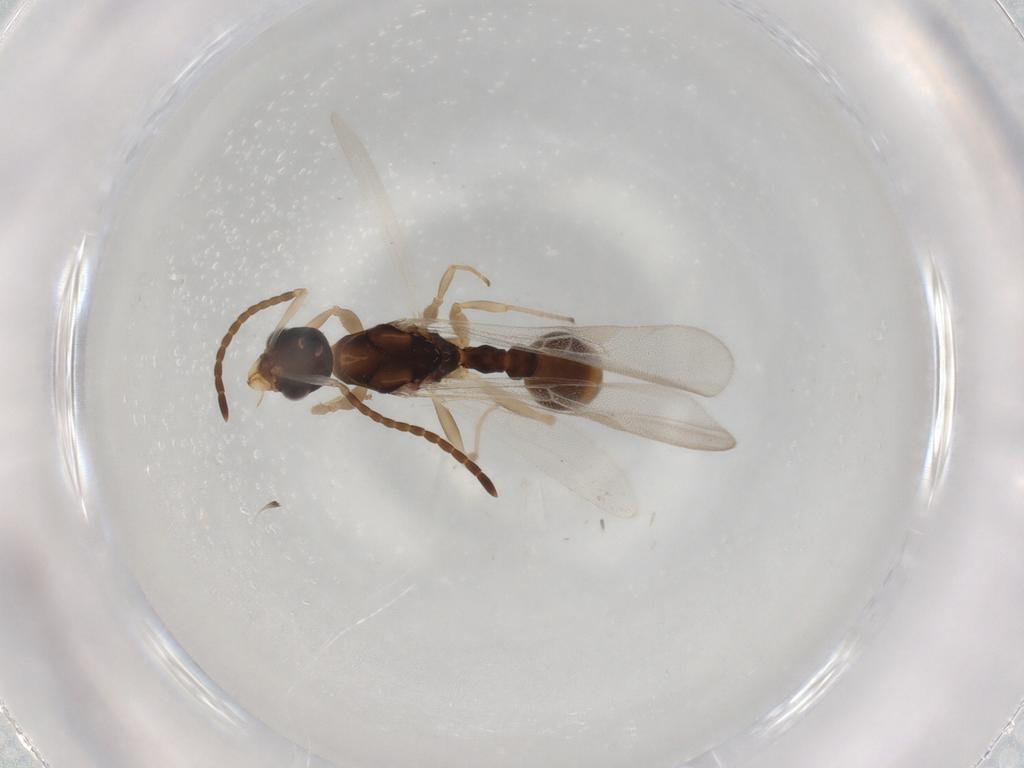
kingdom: Animalia
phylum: Arthropoda
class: Insecta
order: Hymenoptera
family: Formicidae
